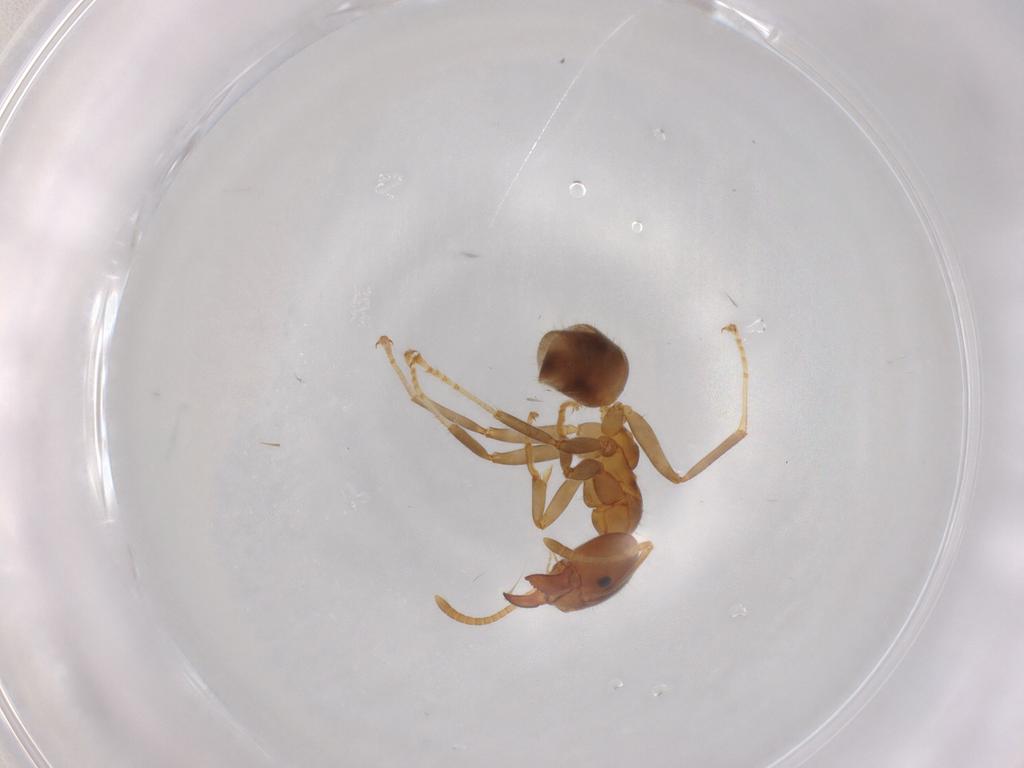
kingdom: Animalia
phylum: Arthropoda
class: Insecta
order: Hymenoptera
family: Formicidae
